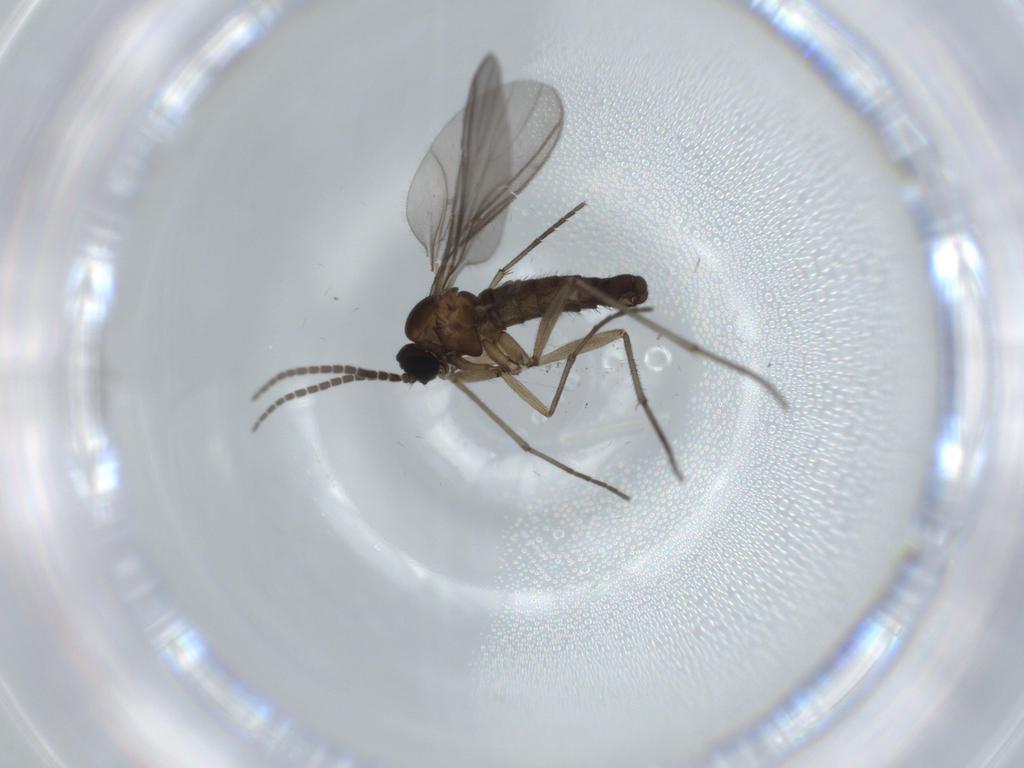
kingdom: Animalia
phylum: Arthropoda
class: Insecta
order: Diptera
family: Sciaridae
